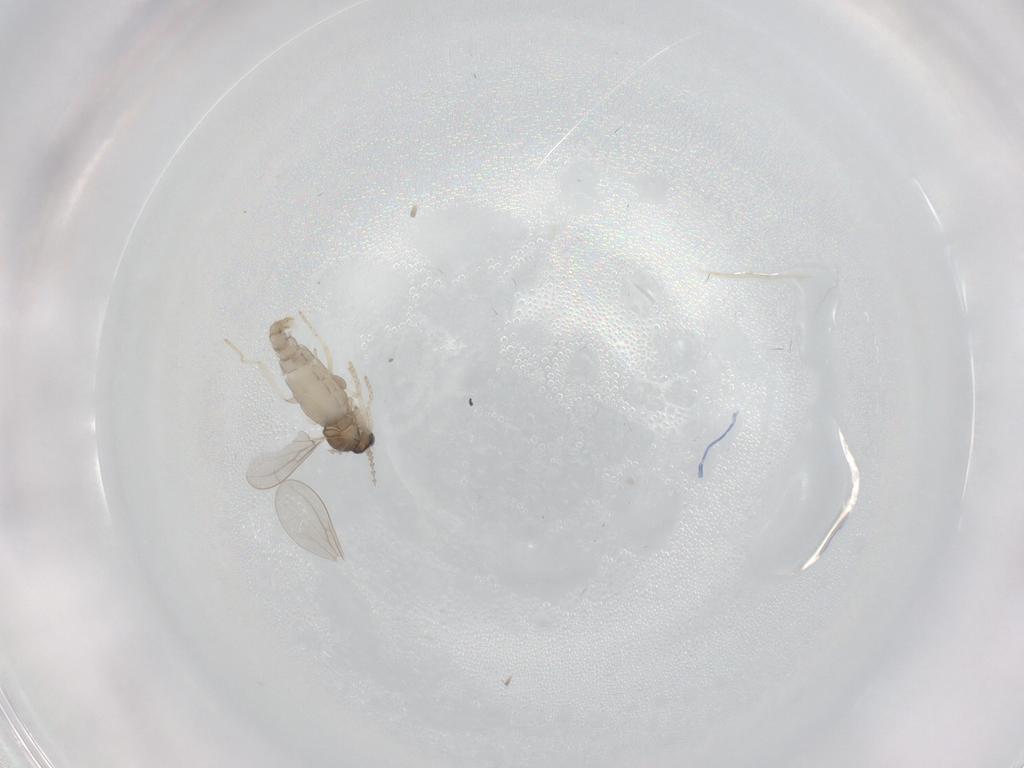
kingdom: Animalia
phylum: Arthropoda
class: Insecta
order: Diptera
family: Cecidomyiidae
